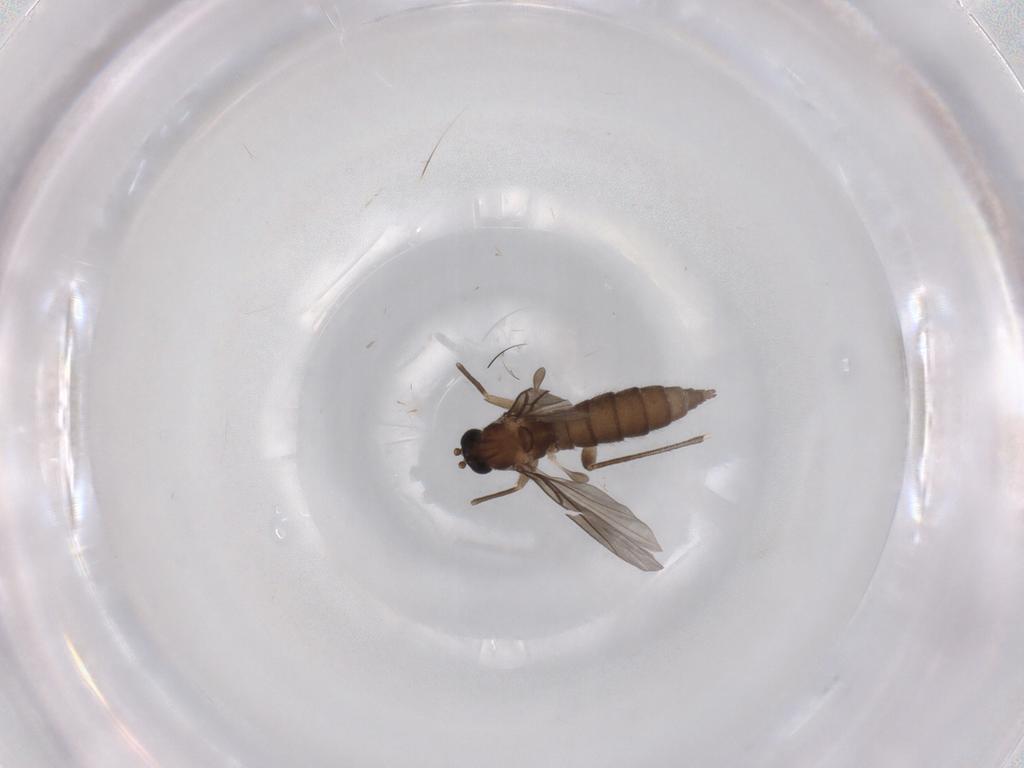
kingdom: Animalia
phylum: Arthropoda
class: Insecta
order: Diptera
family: Sciaridae
